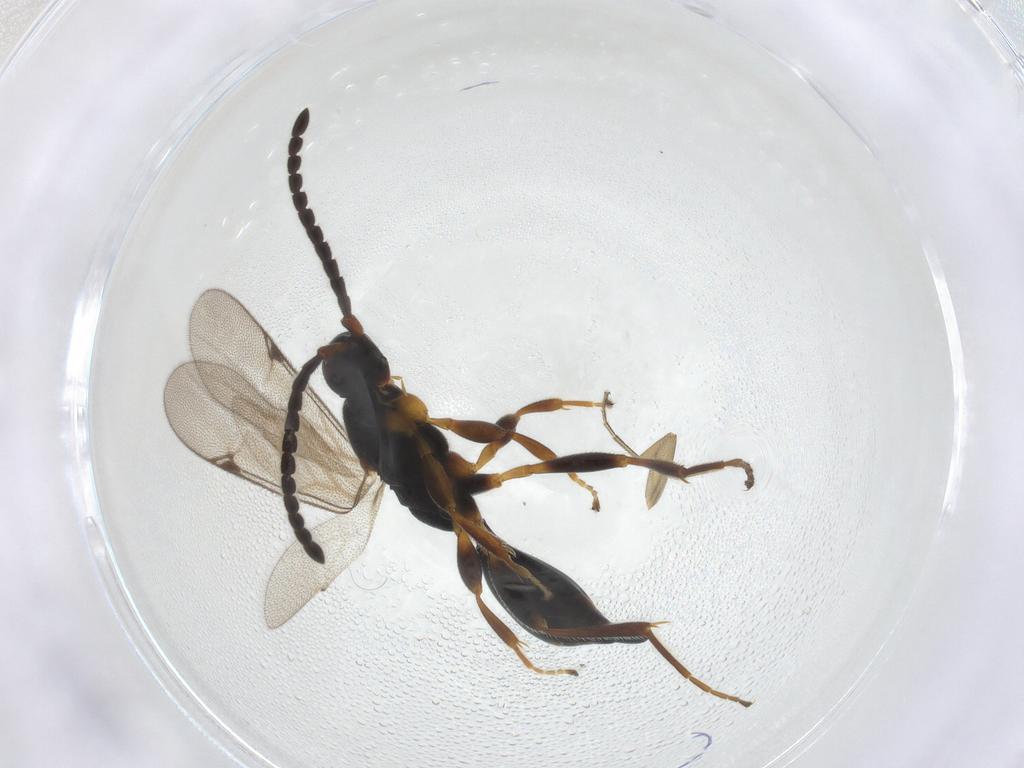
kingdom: Animalia
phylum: Arthropoda
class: Insecta
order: Hymenoptera
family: Proctotrupidae
